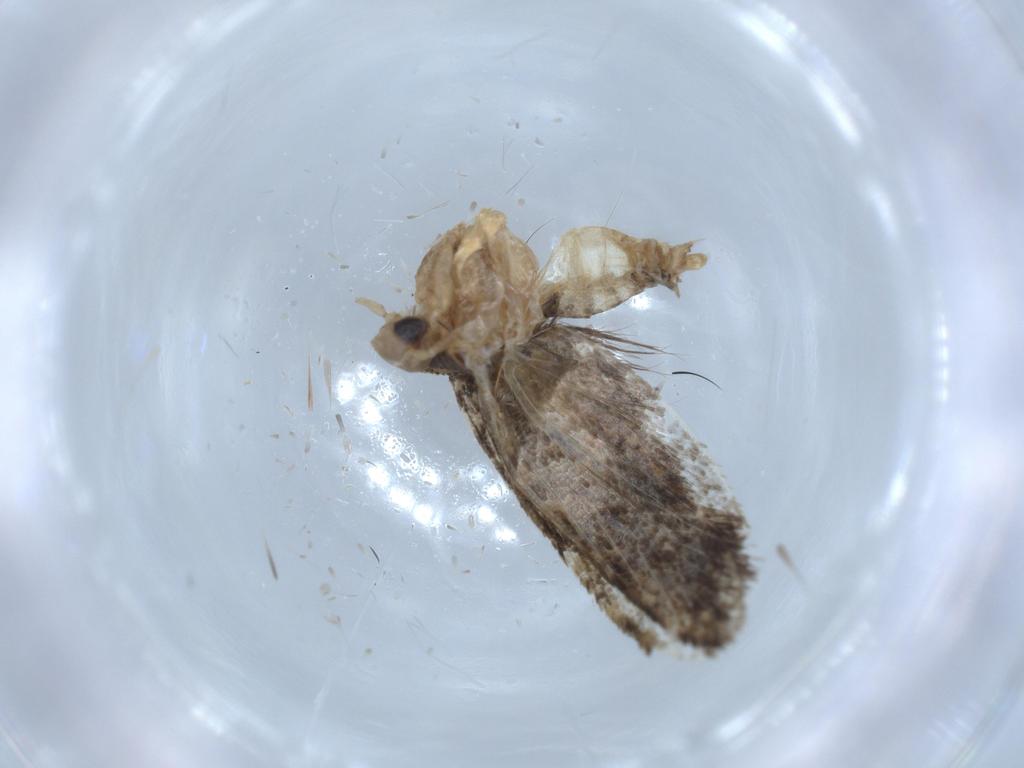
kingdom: Animalia
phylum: Arthropoda
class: Insecta
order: Lepidoptera
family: Tineidae
